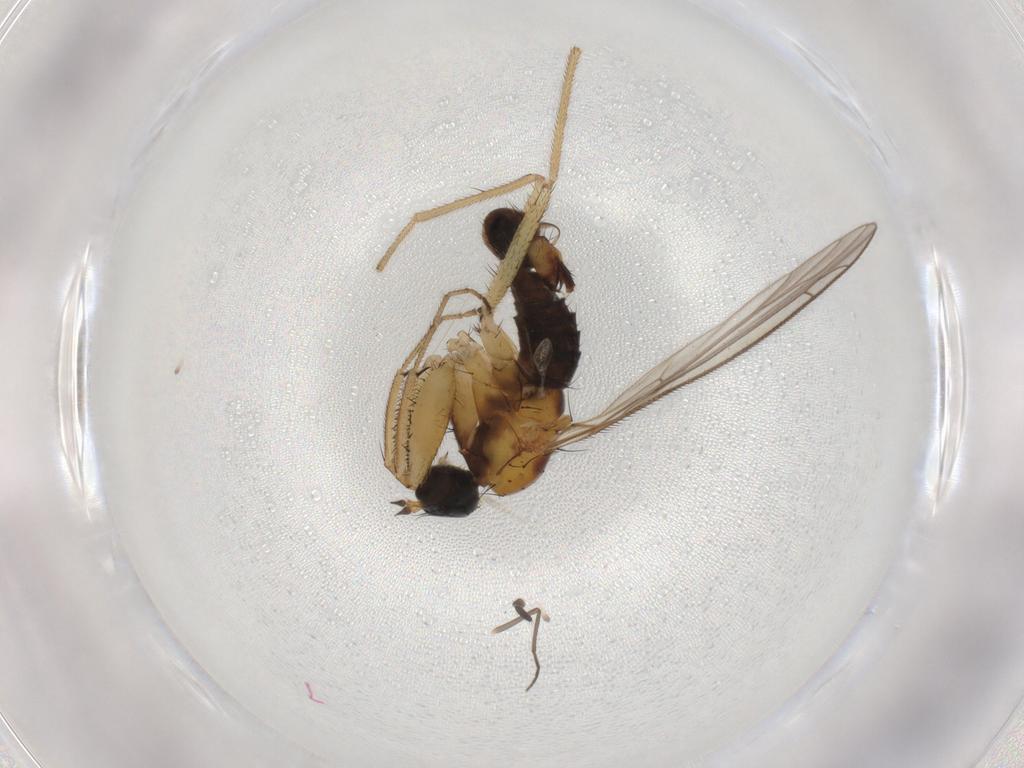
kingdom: Animalia
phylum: Arthropoda
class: Insecta
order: Diptera
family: Empididae
